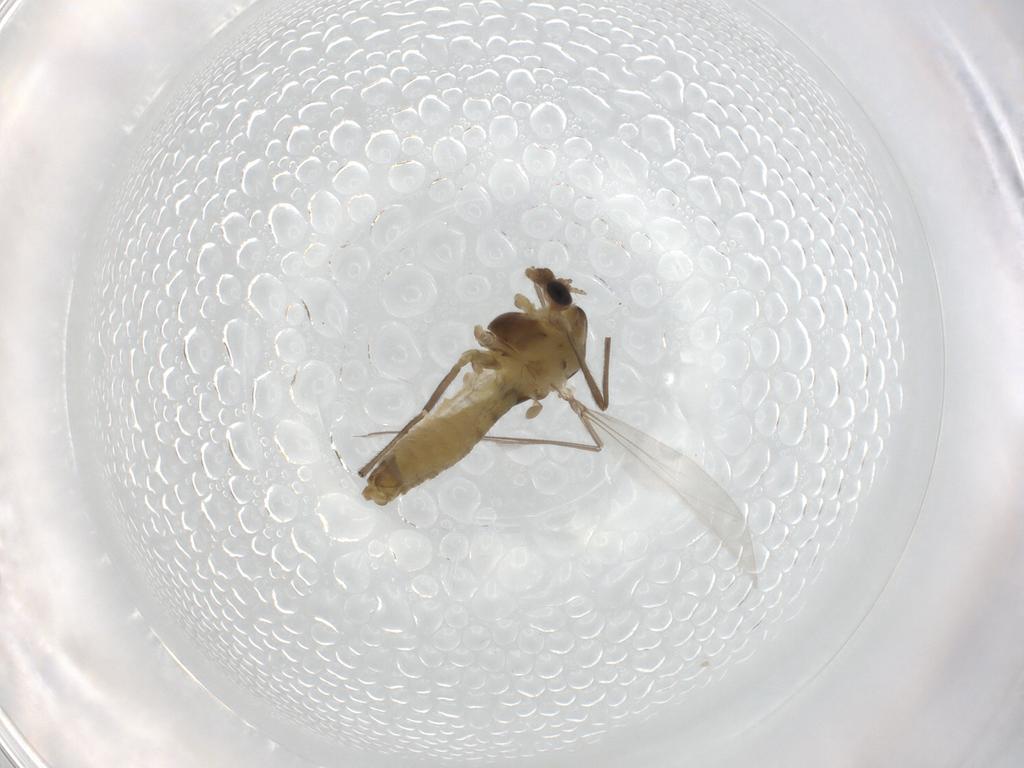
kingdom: Animalia
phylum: Arthropoda
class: Insecta
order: Diptera
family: Chironomidae
